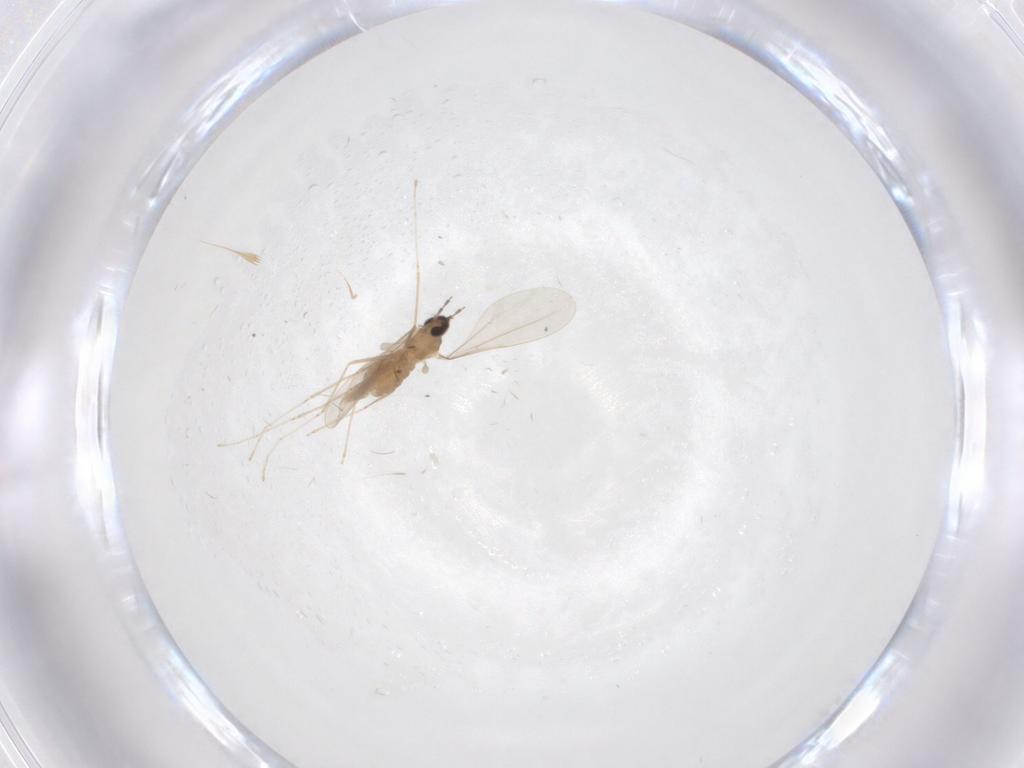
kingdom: Animalia
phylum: Arthropoda
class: Insecta
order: Diptera
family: Cecidomyiidae
